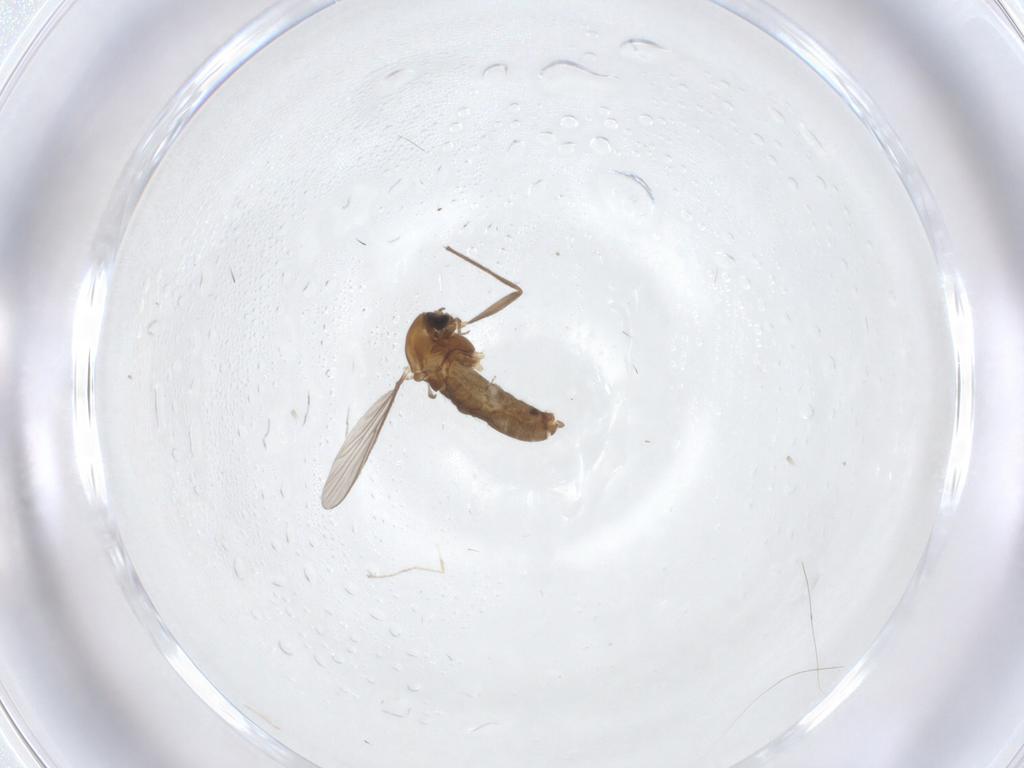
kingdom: Animalia
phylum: Arthropoda
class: Insecta
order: Diptera
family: Chironomidae
